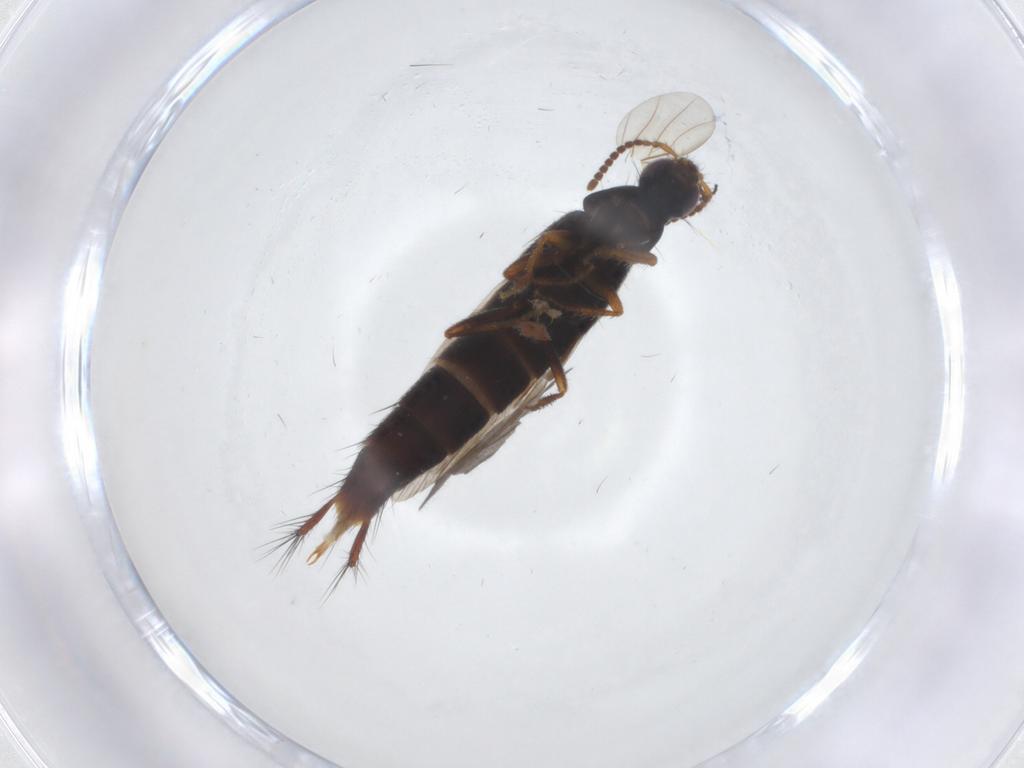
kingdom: Animalia
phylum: Arthropoda
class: Insecta
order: Coleoptera
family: Staphylinidae
